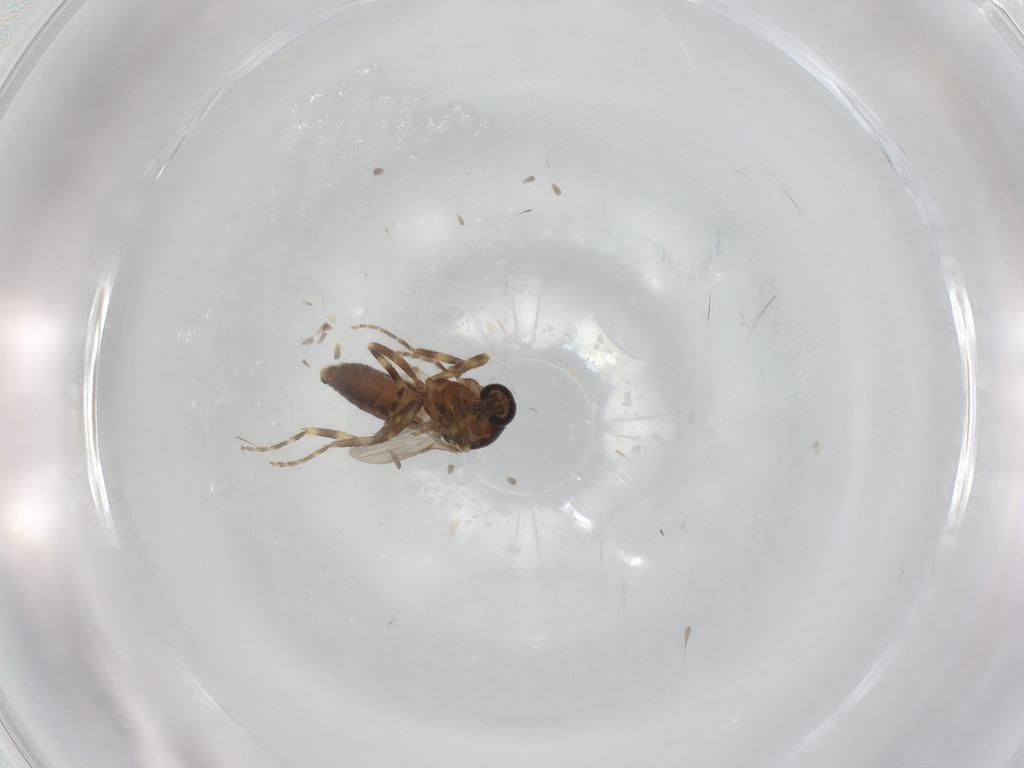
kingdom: Animalia
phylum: Arthropoda
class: Insecta
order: Diptera
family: Ceratopogonidae
